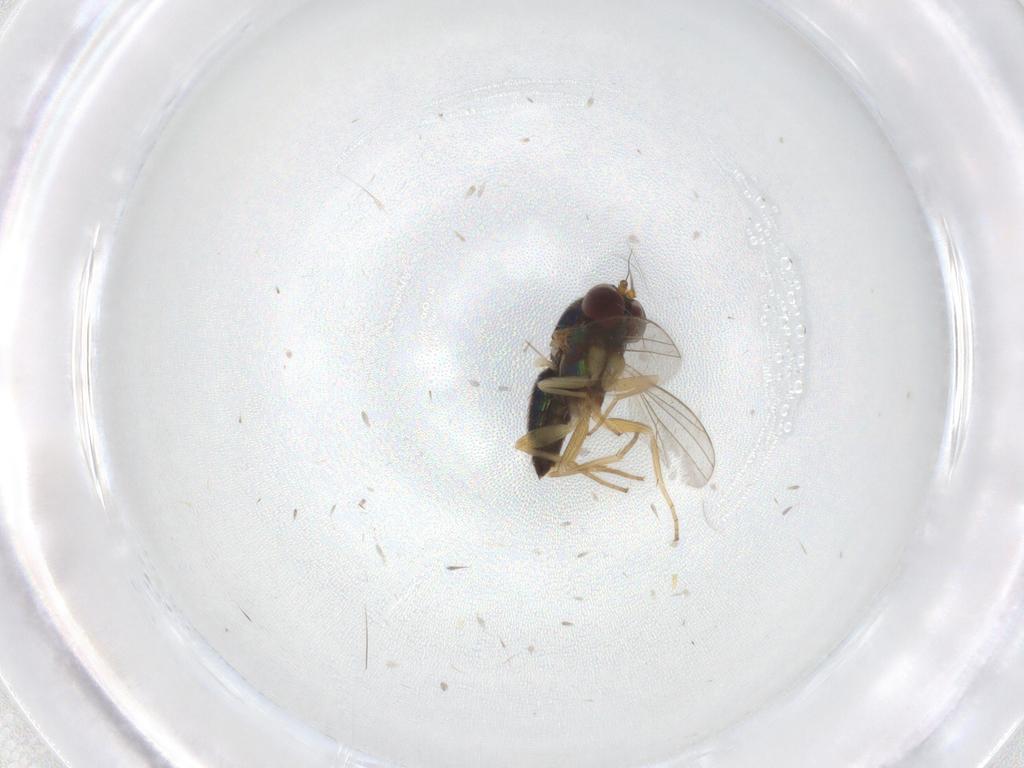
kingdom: Animalia
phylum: Arthropoda
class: Insecta
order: Diptera
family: Dolichopodidae
